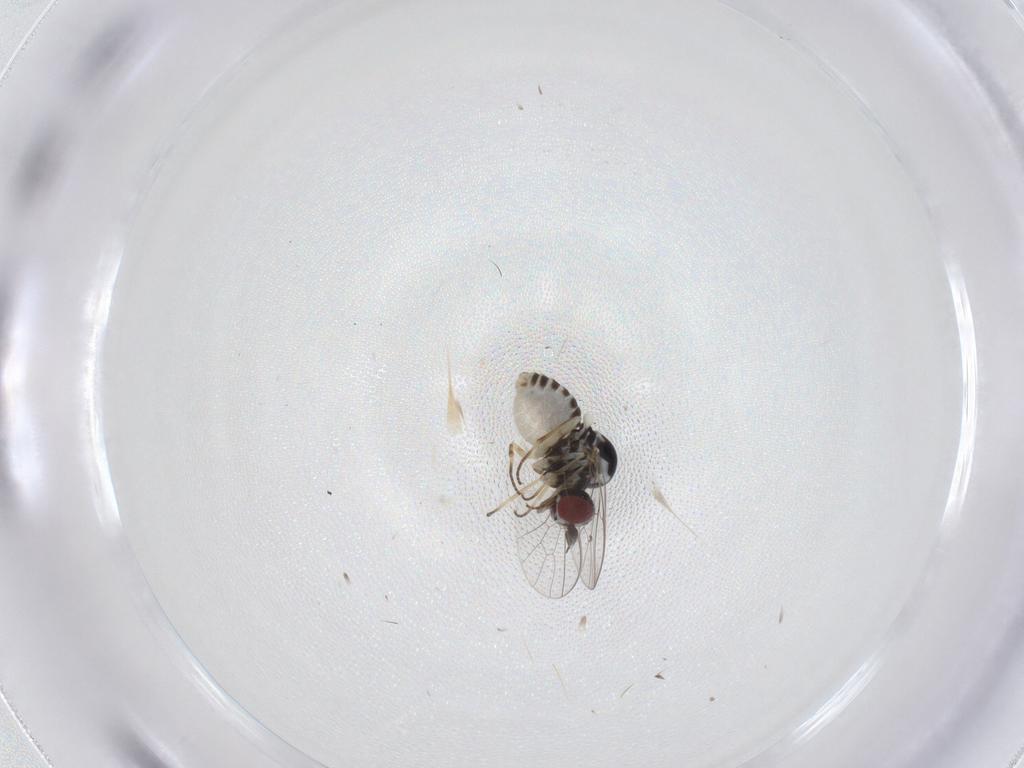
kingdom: Animalia
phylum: Arthropoda
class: Insecta
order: Diptera
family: Bombyliidae
